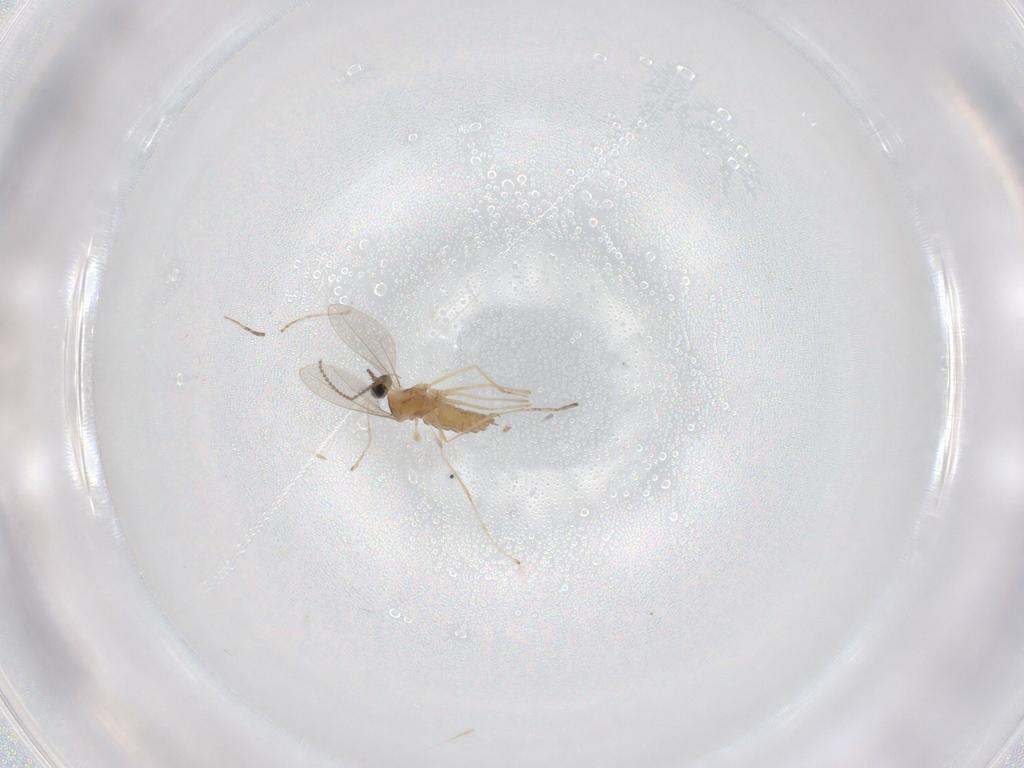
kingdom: Animalia
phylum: Arthropoda
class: Insecta
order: Diptera
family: Cecidomyiidae
